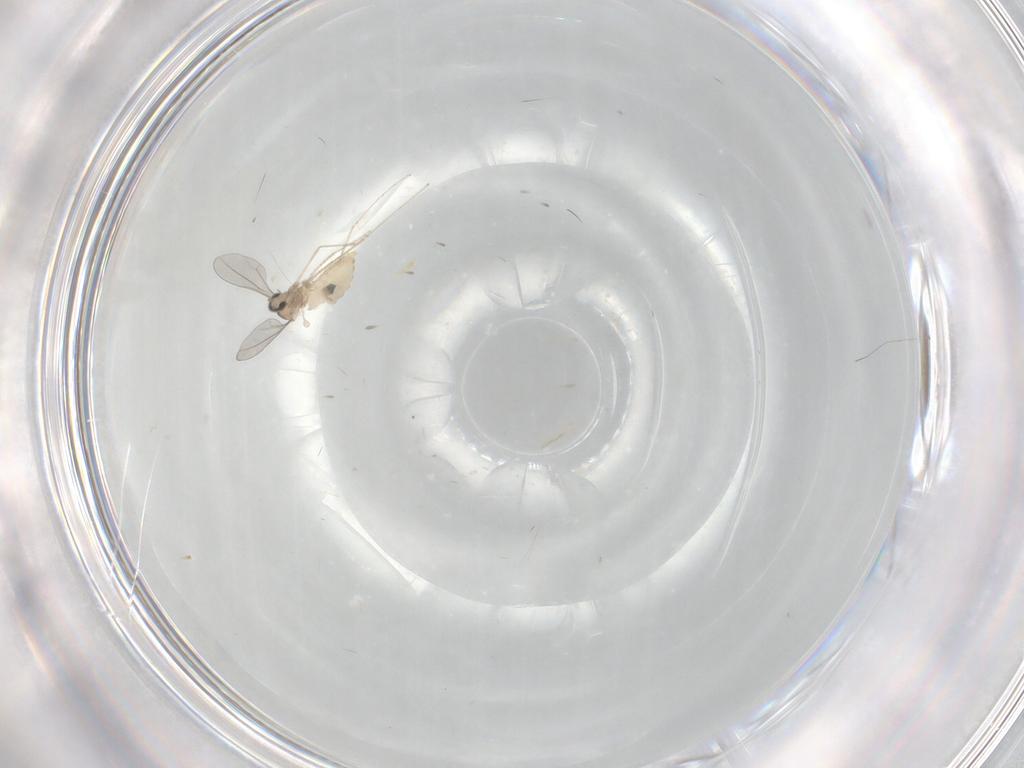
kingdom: Animalia
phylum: Arthropoda
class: Insecta
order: Diptera
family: Cecidomyiidae
